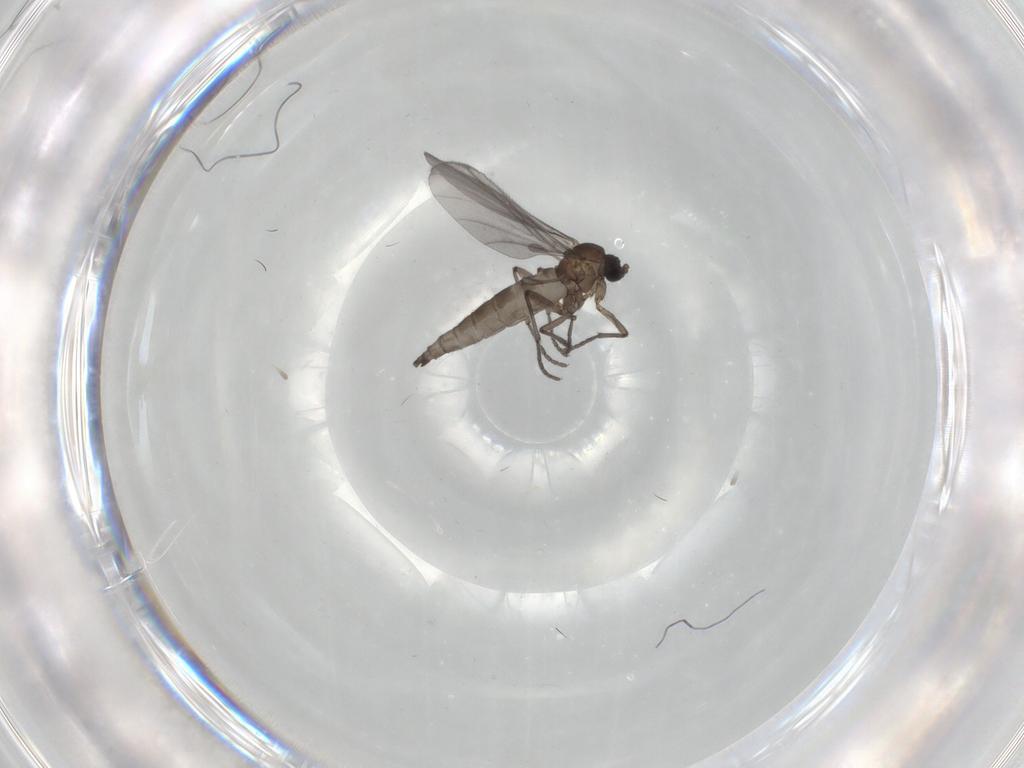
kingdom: Animalia
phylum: Arthropoda
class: Insecta
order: Diptera
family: Sciaridae
